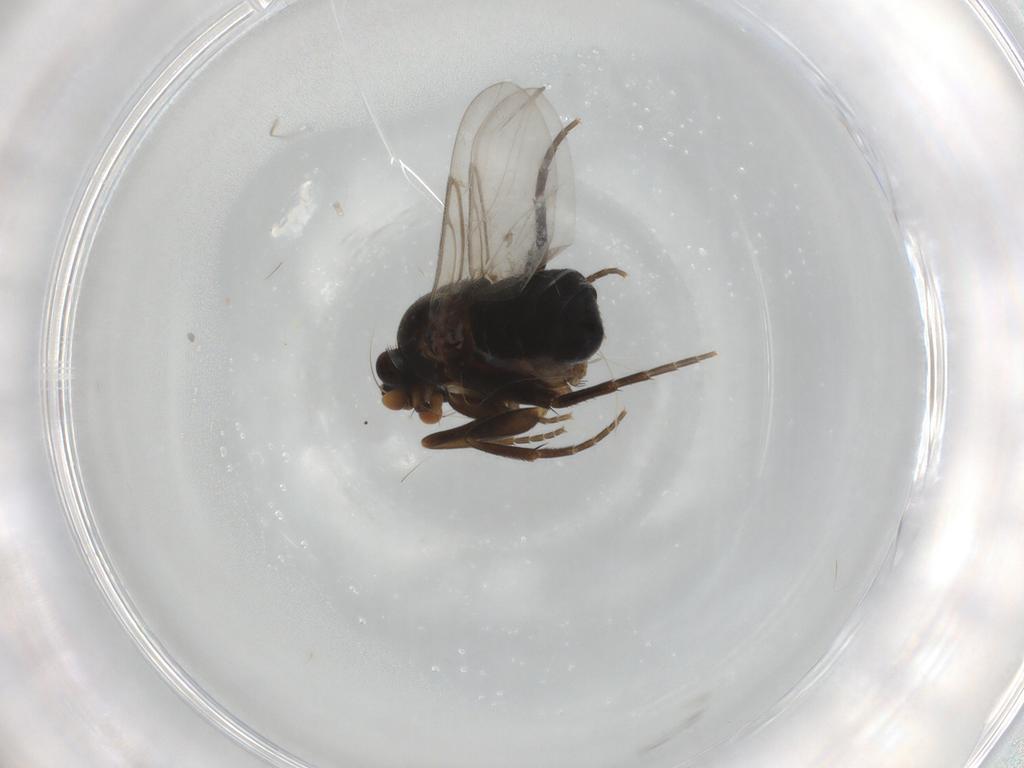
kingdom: Animalia
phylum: Arthropoda
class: Insecta
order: Diptera
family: Phoridae
